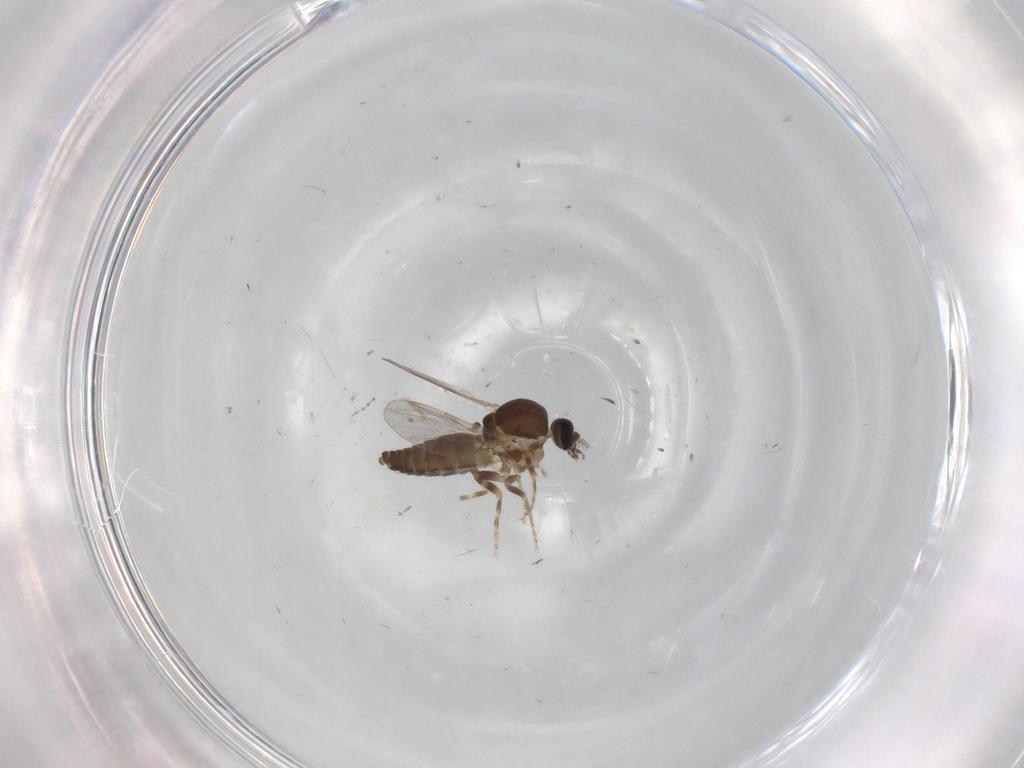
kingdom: Animalia
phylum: Arthropoda
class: Insecta
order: Diptera
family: Ceratopogonidae
